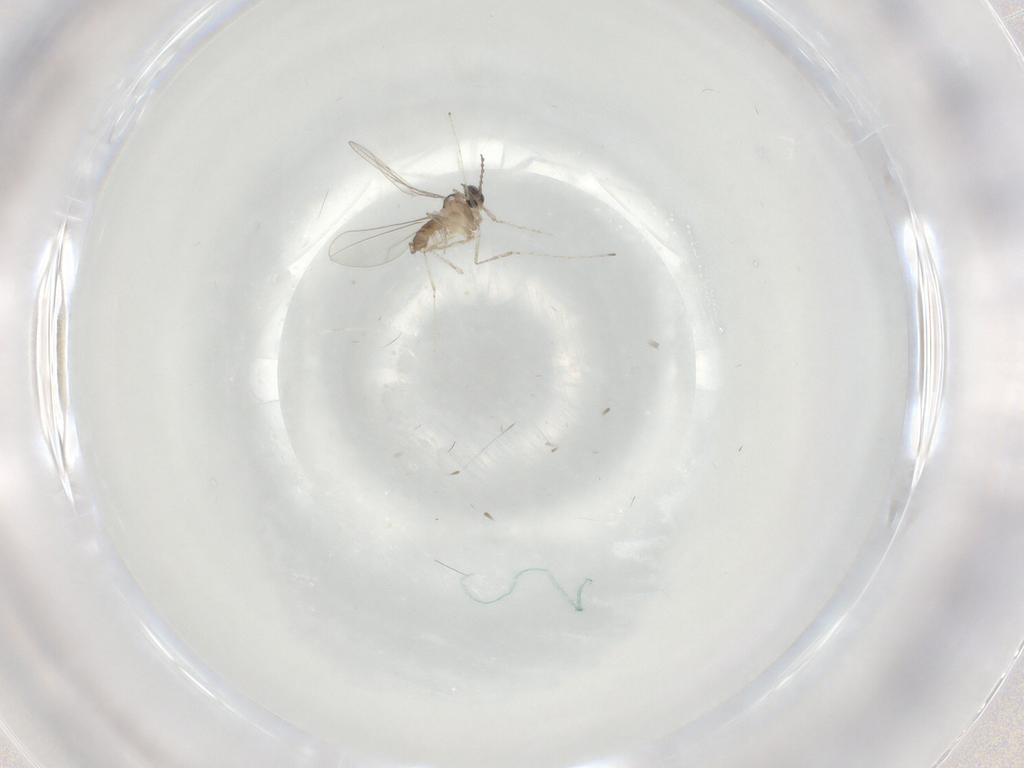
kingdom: Animalia
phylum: Arthropoda
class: Insecta
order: Diptera
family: Cecidomyiidae
